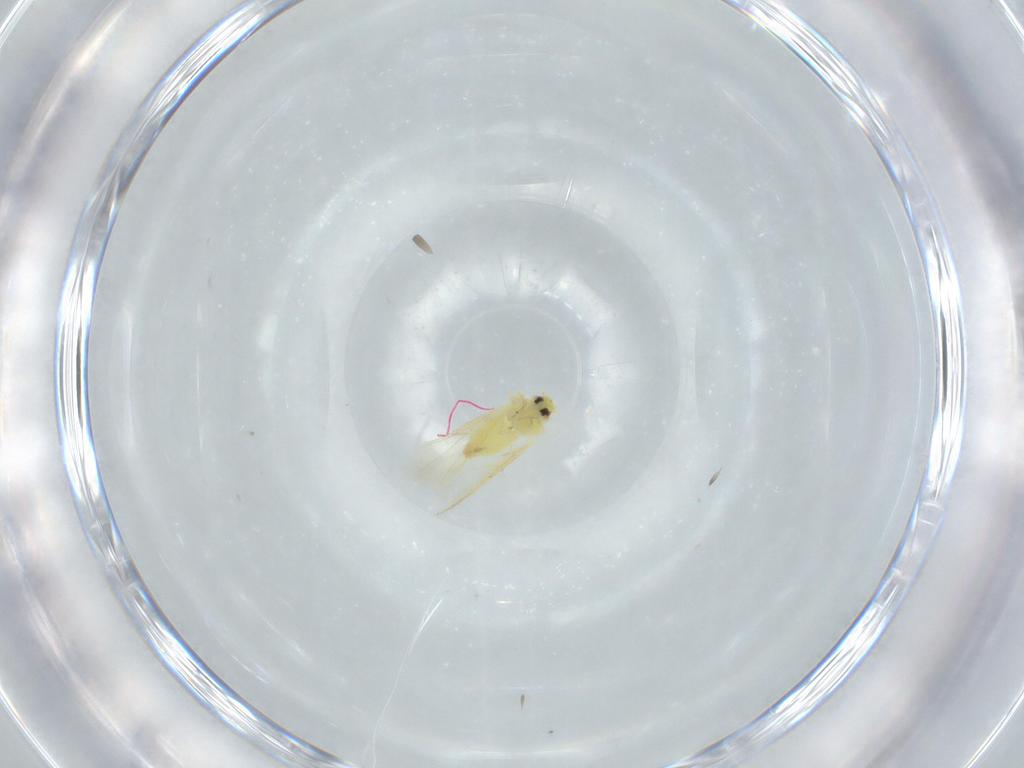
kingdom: Animalia
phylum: Arthropoda
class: Insecta
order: Hemiptera
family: Aleyrodidae
